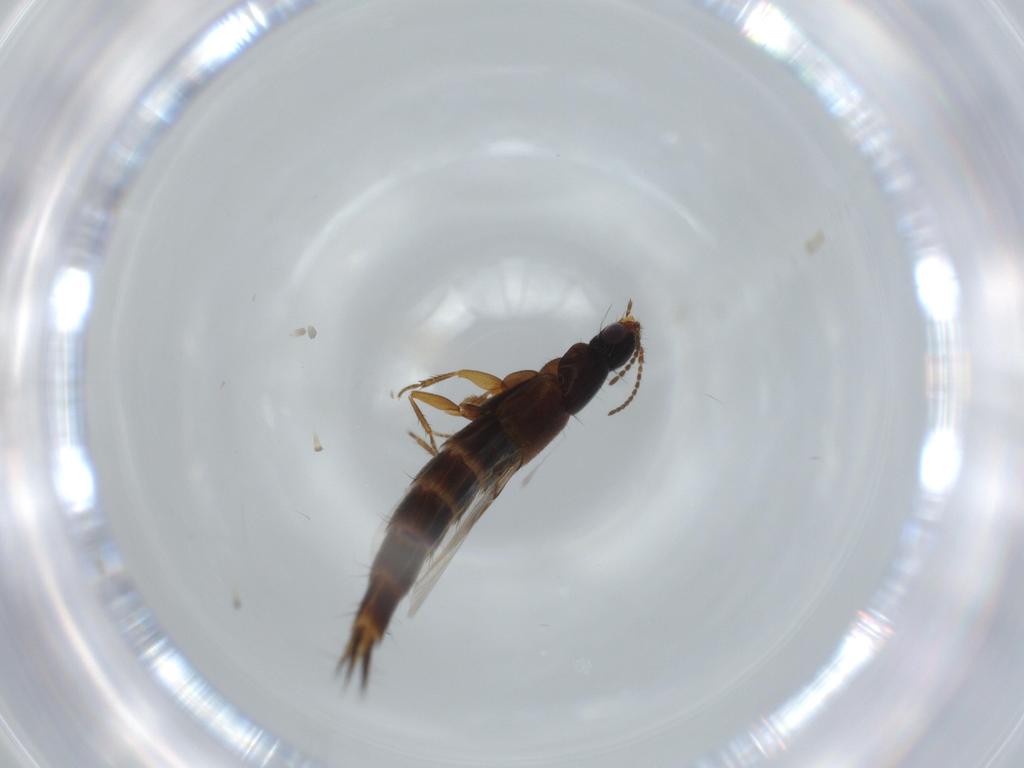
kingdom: Animalia
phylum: Arthropoda
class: Insecta
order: Coleoptera
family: Staphylinidae
